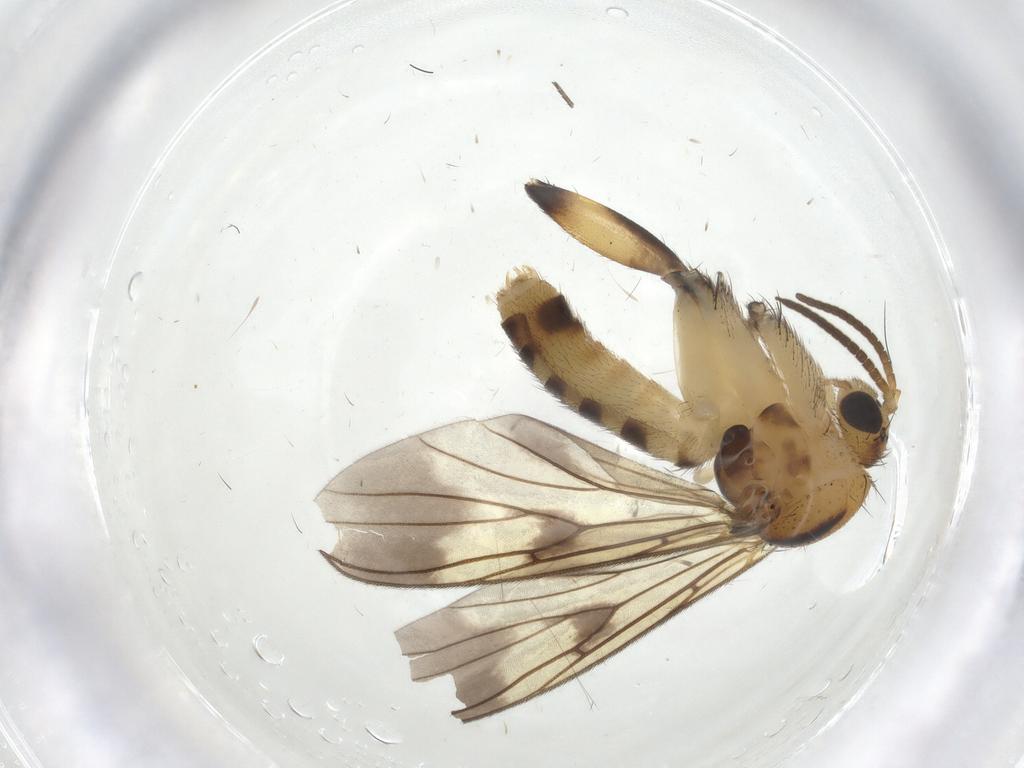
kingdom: Animalia
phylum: Arthropoda
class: Insecta
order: Diptera
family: Mycetophilidae
